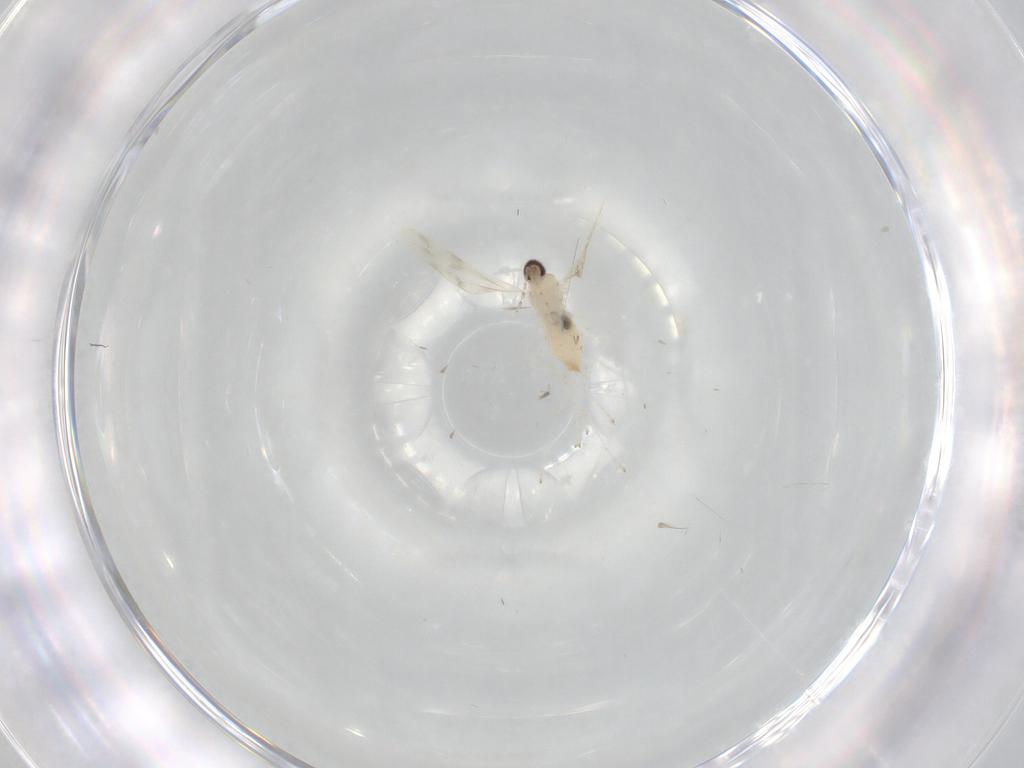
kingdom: Animalia
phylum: Arthropoda
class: Insecta
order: Diptera
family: Cecidomyiidae
